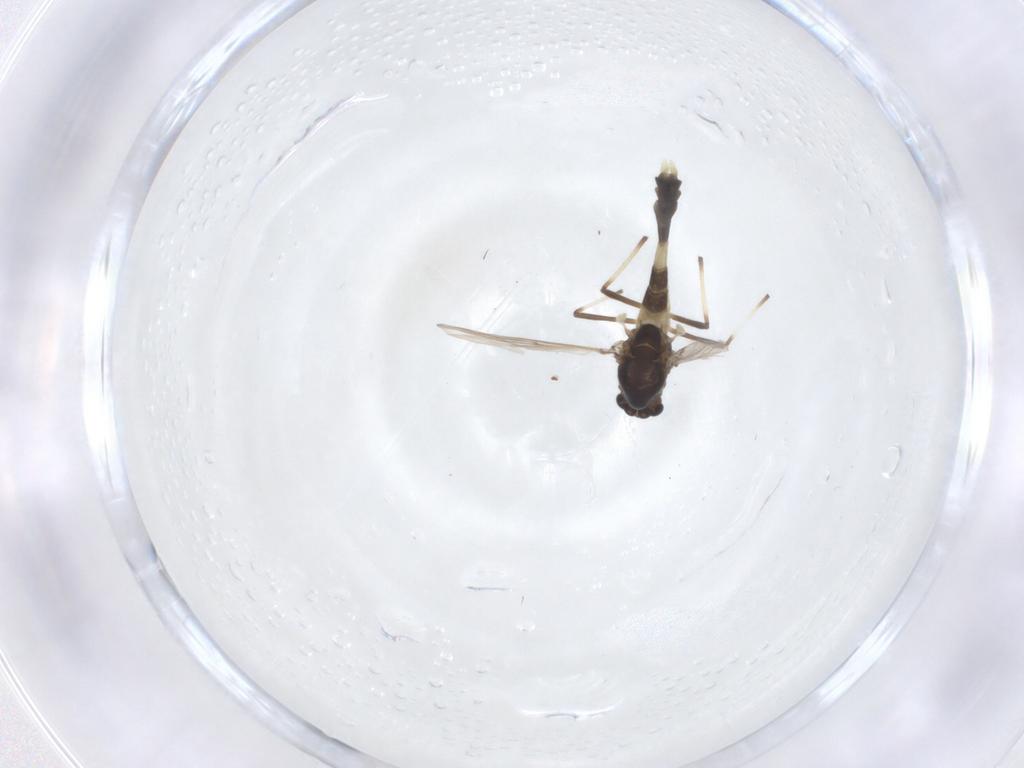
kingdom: Animalia
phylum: Arthropoda
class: Insecta
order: Diptera
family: Chironomidae
